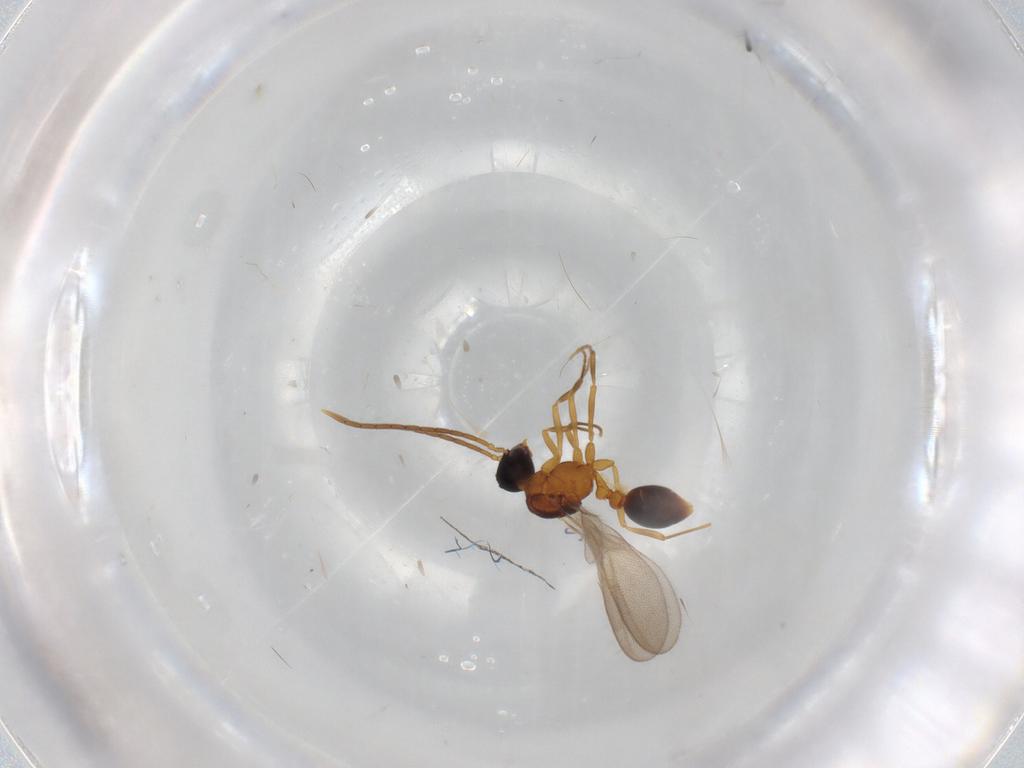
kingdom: Animalia
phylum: Arthropoda
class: Insecta
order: Hymenoptera
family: Formicidae
